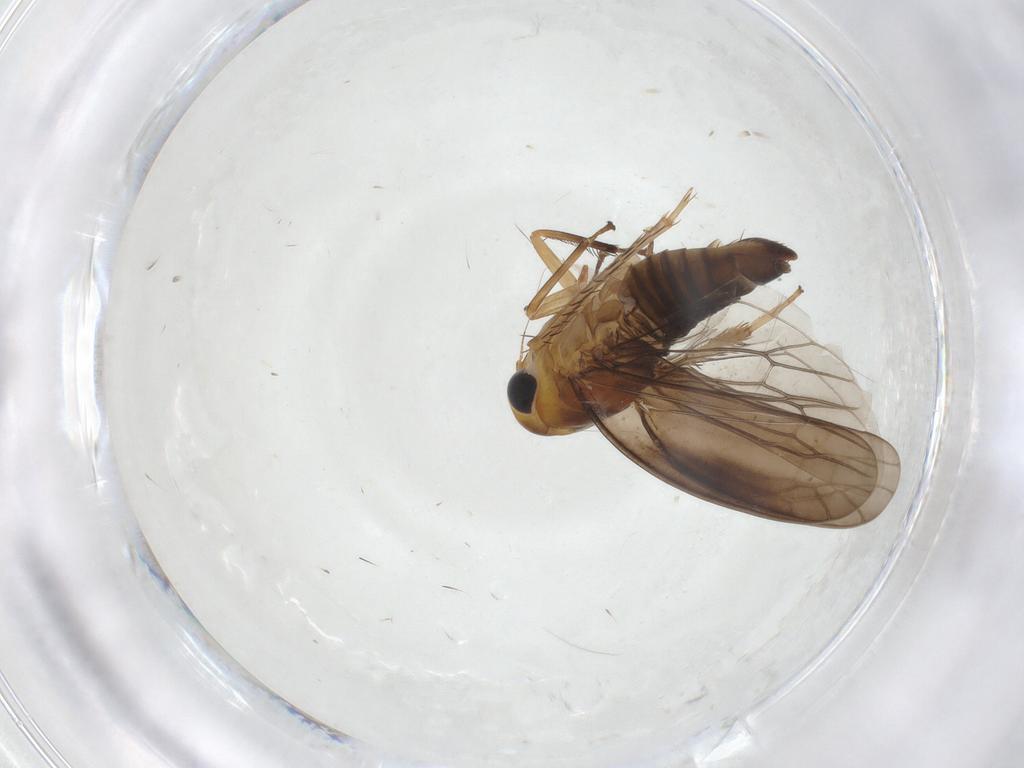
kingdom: Animalia
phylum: Arthropoda
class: Insecta
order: Hemiptera
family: Cicadellidae
